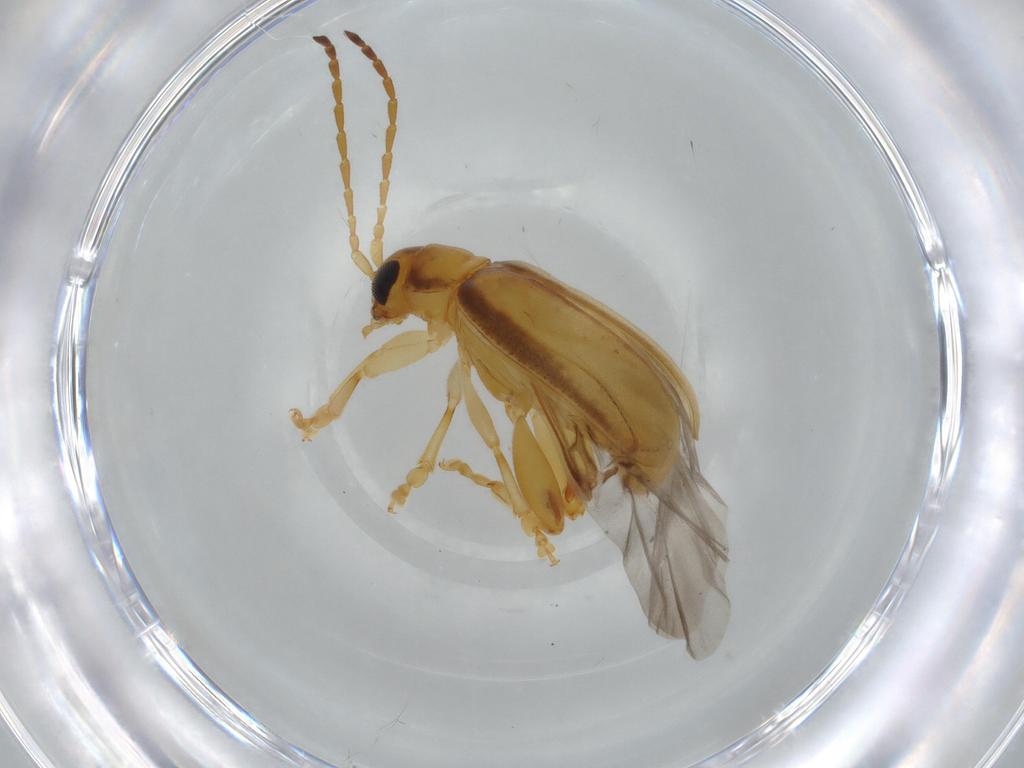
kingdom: Animalia
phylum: Arthropoda
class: Insecta
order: Coleoptera
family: Chrysomelidae
